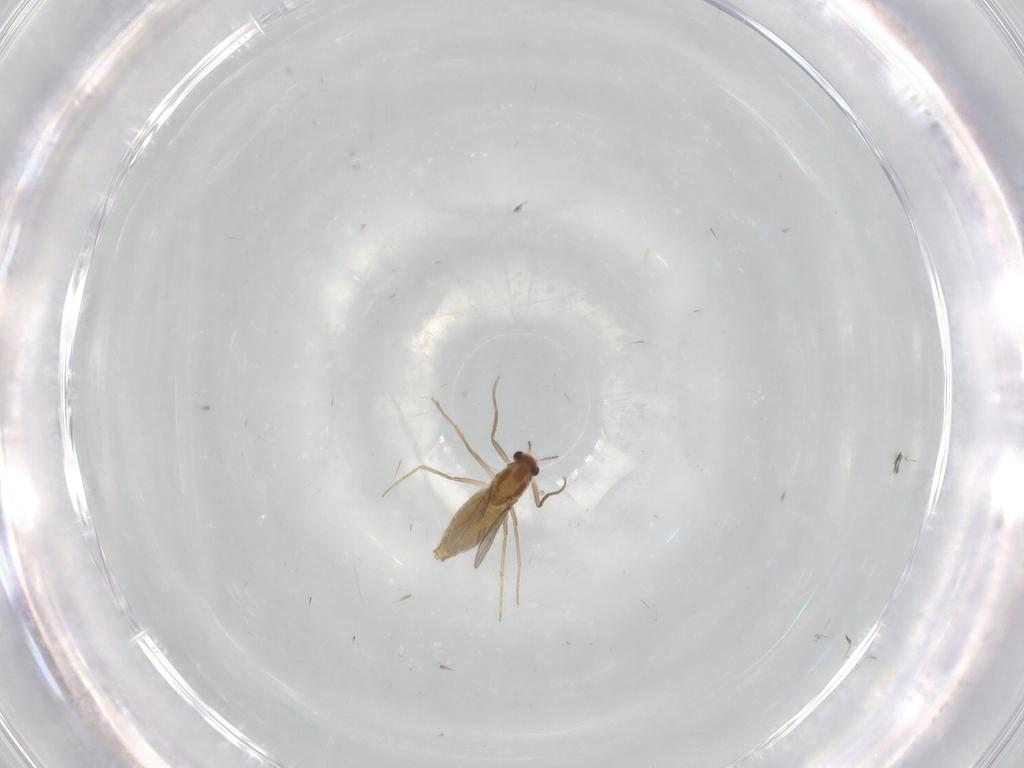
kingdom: Animalia
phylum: Arthropoda
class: Insecta
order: Diptera
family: Chironomidae
